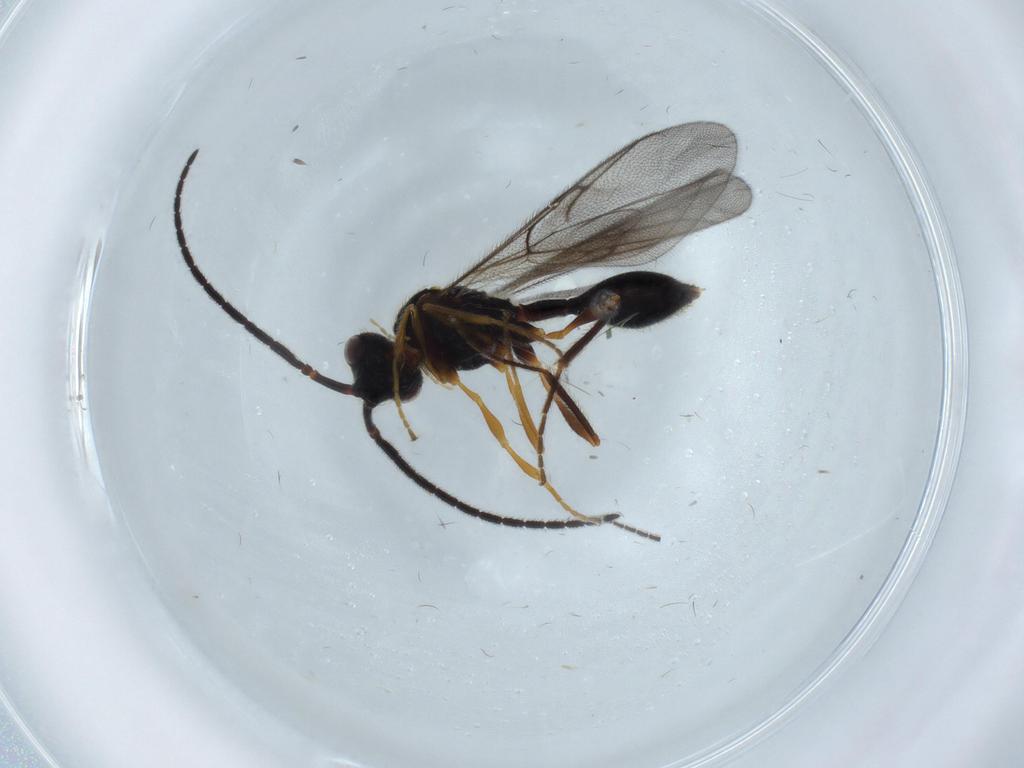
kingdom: Animalia
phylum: Arthropoda
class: Insecta
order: Hymenoptera
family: Diapriidae
